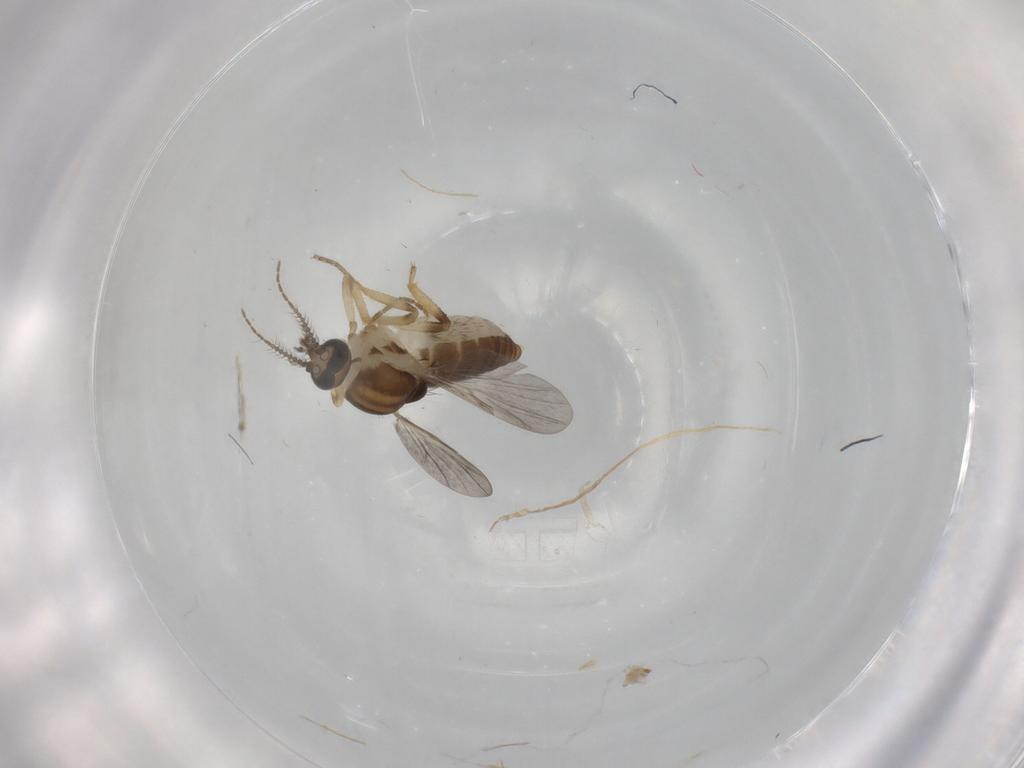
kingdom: Animalia
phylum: Arthropoda
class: Insecta
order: Diptera
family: Ceratopogonidae
